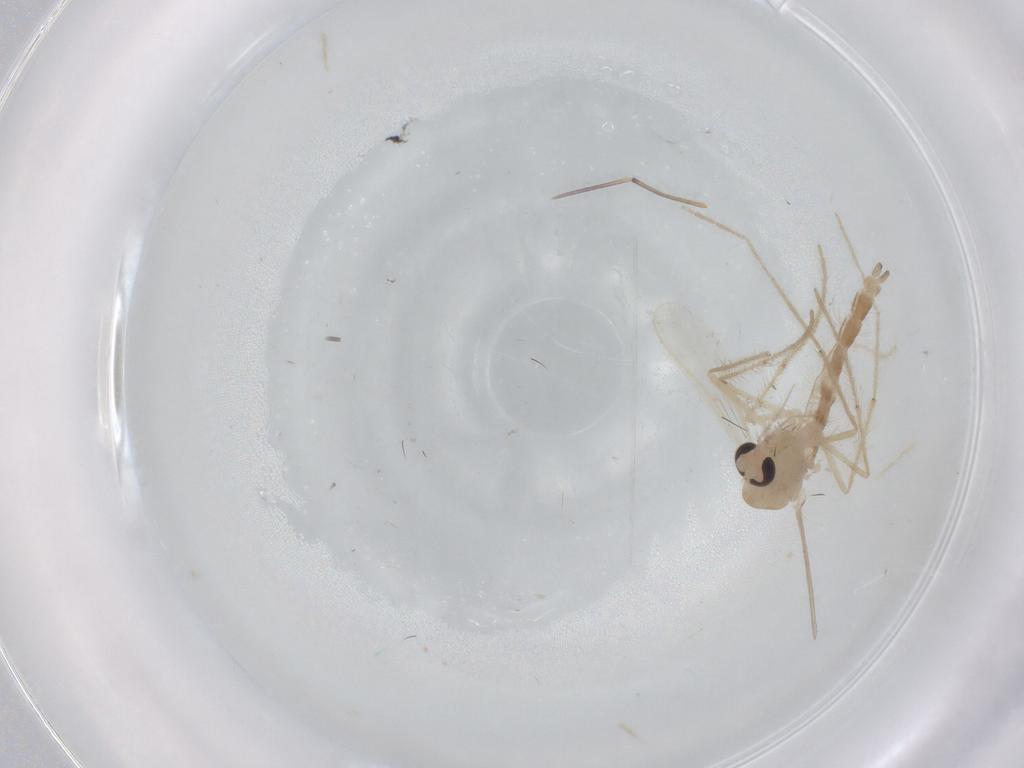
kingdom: Animalia
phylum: Arthropoda
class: Insecta
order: Diptera
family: Chironomidae
